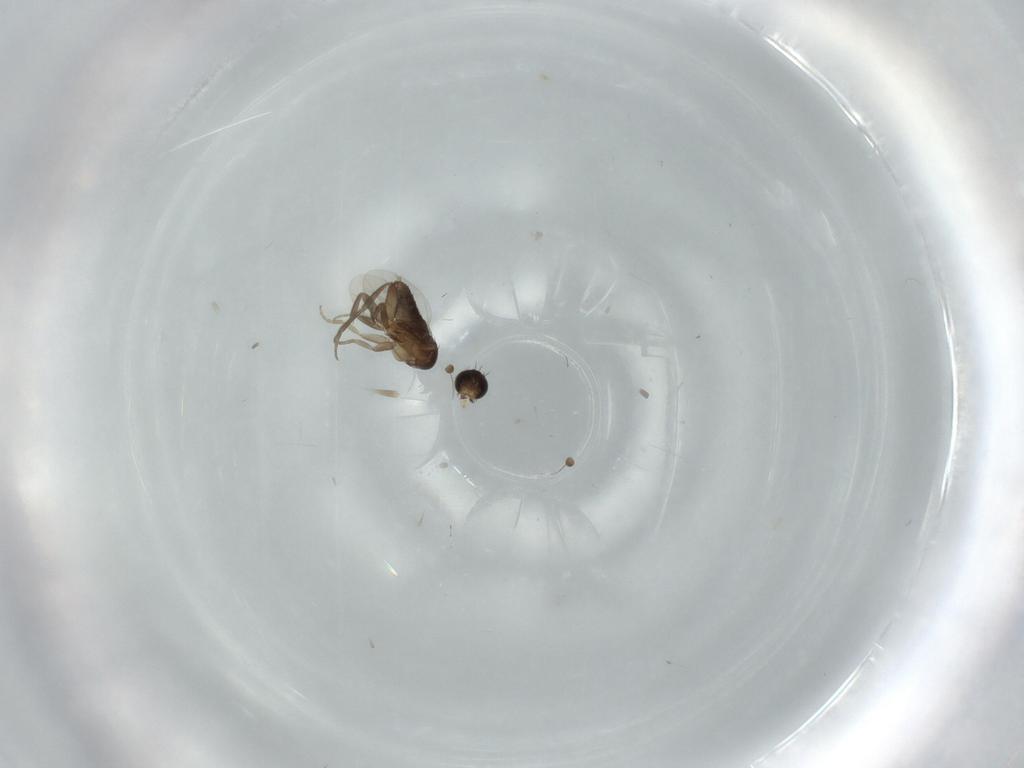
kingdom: Animalia
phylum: Arthropoda
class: Insecta
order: Diptera
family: Phoridae
